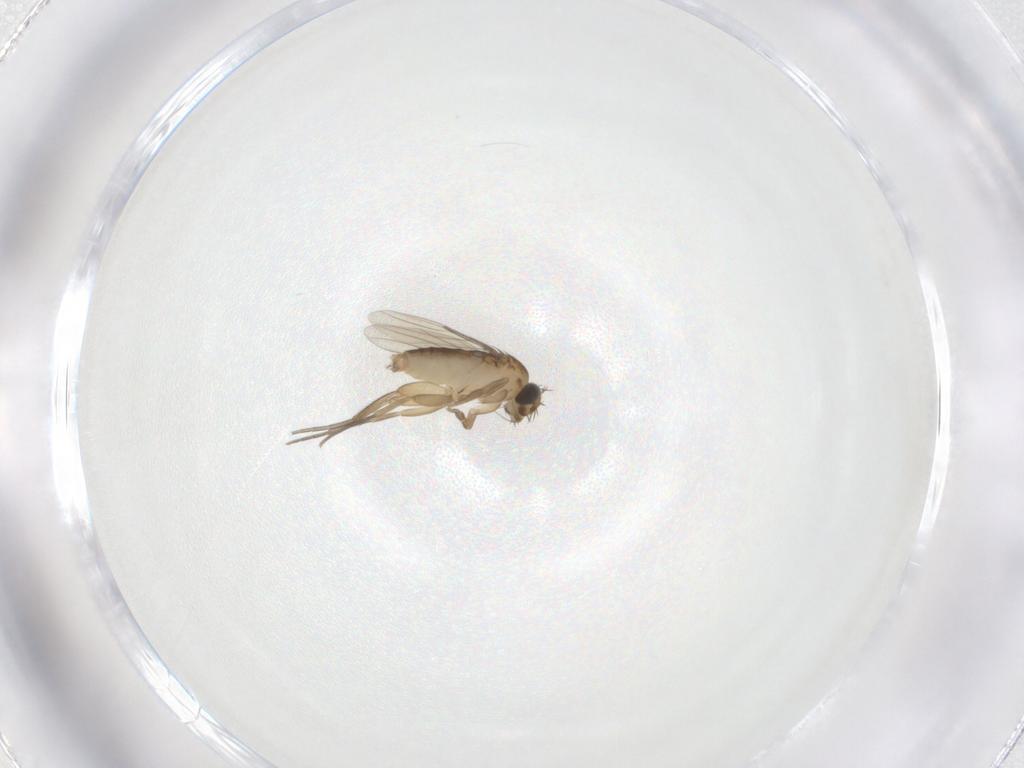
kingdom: Animalia
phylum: Arthropoda
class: Insecta
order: Diptera
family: Phoridae
